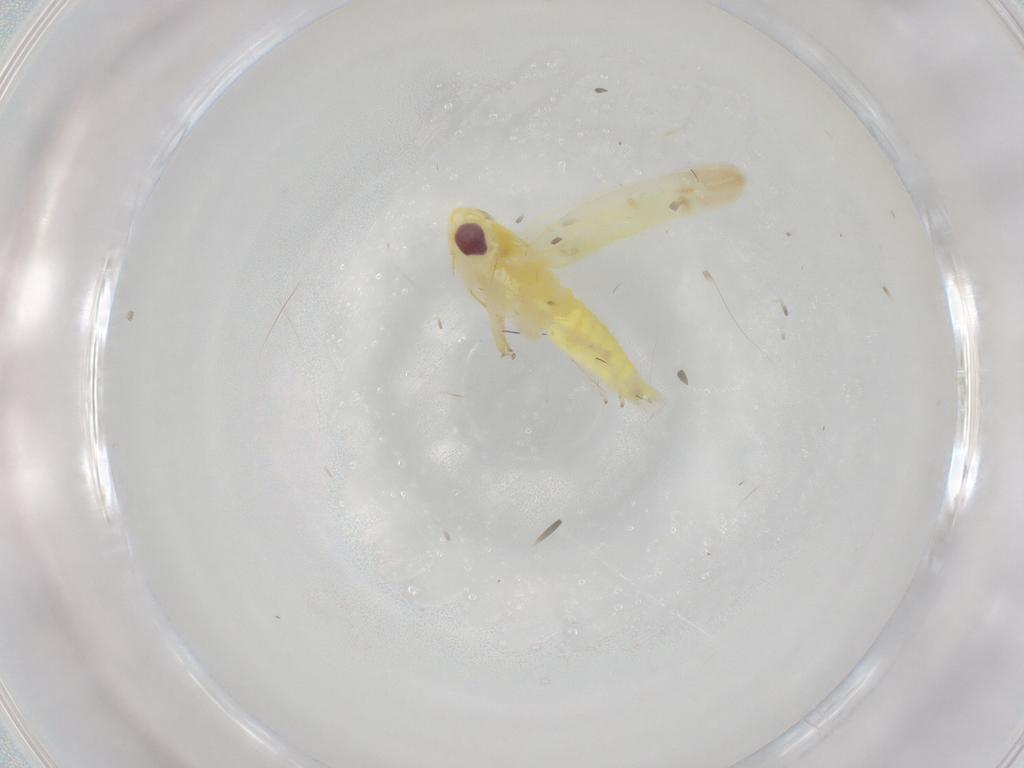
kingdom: Animalia
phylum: Arthropoda
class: Insecta
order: Hemiptera
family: Cicadellidae
